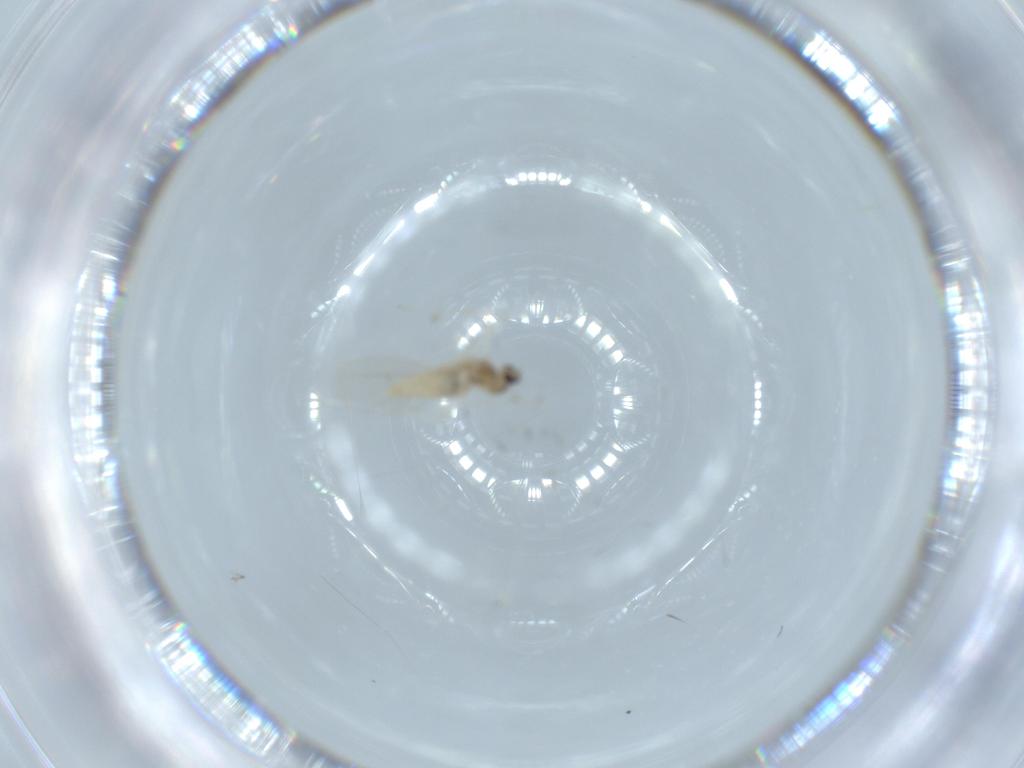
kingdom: Animalia
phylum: Arthropoda
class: Insecta
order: Diptera
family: Cecidomyiidae
